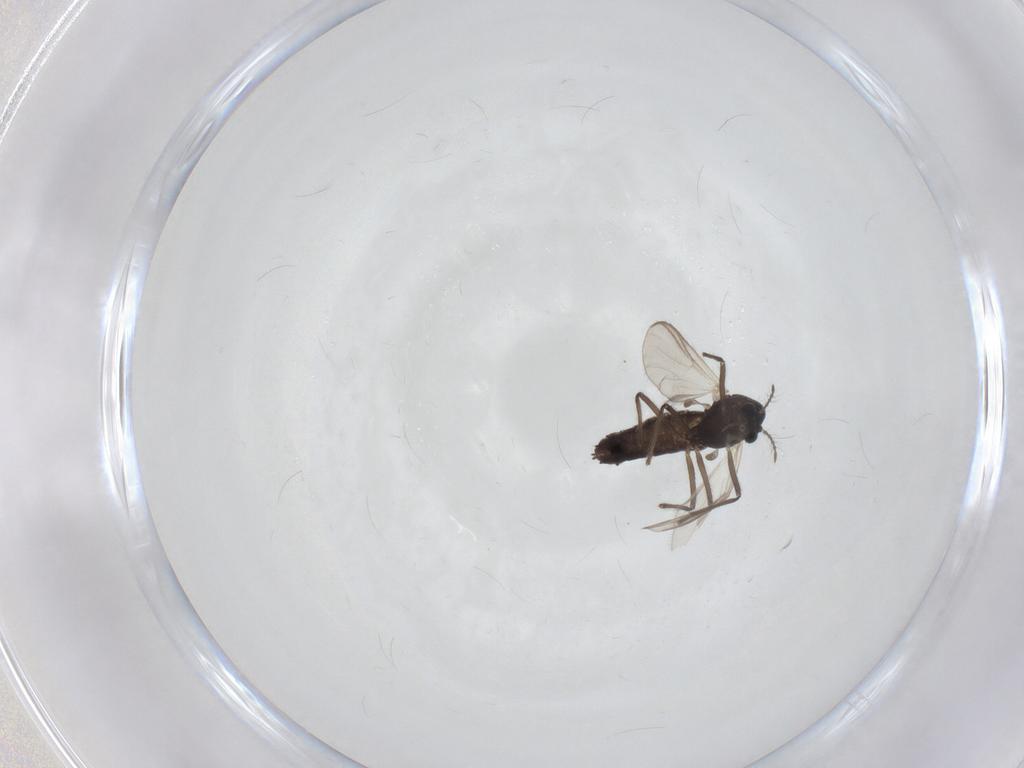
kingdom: Animalia
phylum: Arthropoda
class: Insecta
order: Diptera
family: Chironomidae
